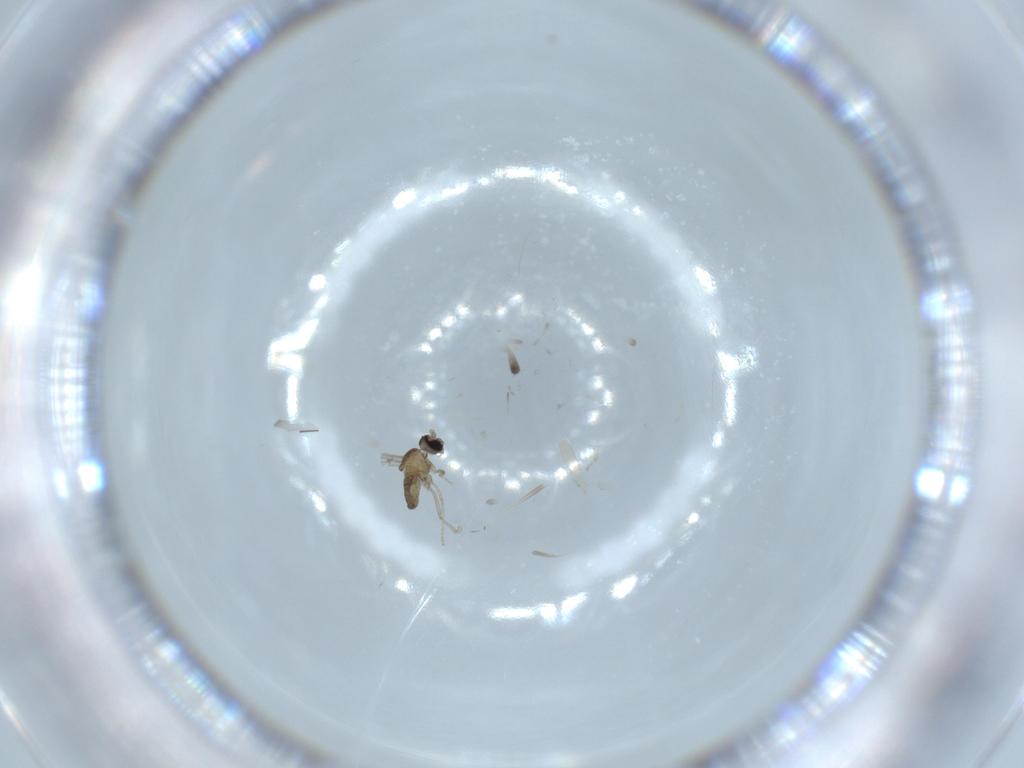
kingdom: Animalia
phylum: Arthropoda
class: Insecta
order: Diptera
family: Cecidomyiidae
